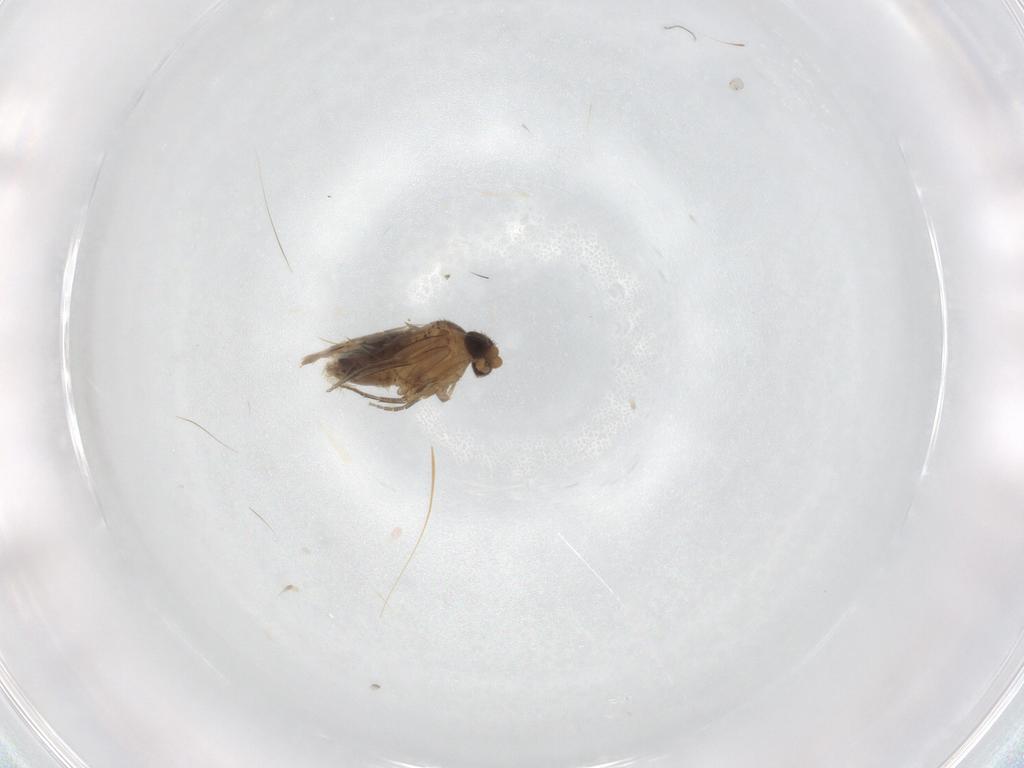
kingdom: Animalia
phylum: Arthropoda
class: Insecta
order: Diptera
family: Phoridae
